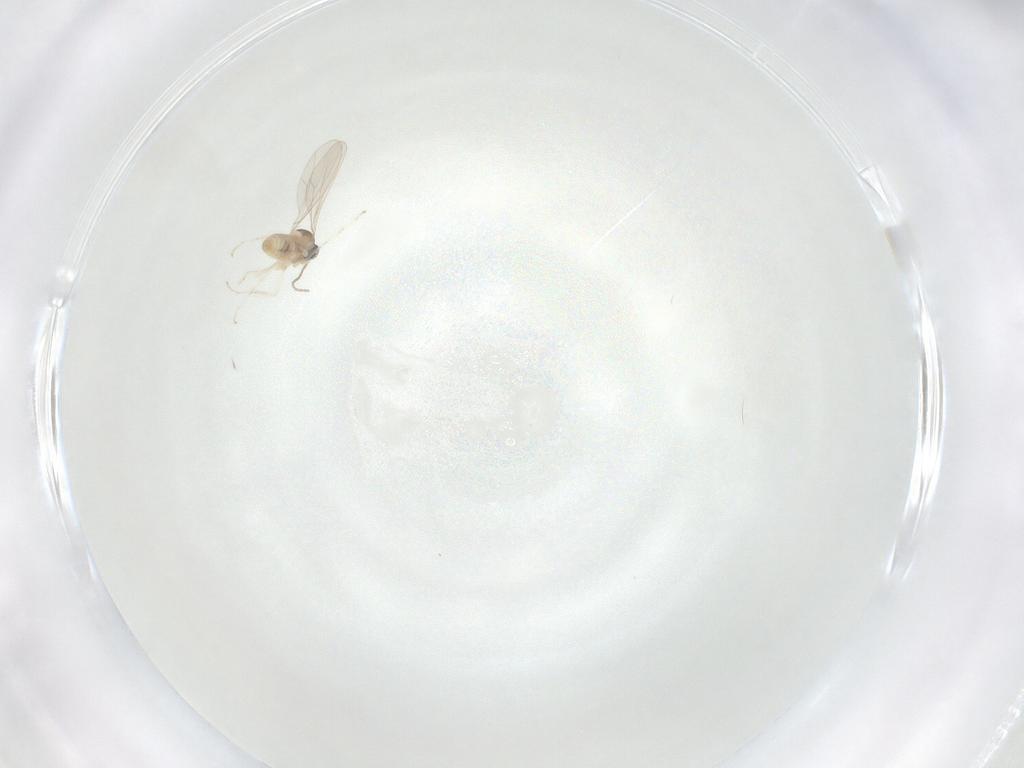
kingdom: Animalia
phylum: Arthropoda
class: Insecta
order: Diptera
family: Cecidomyiidae
